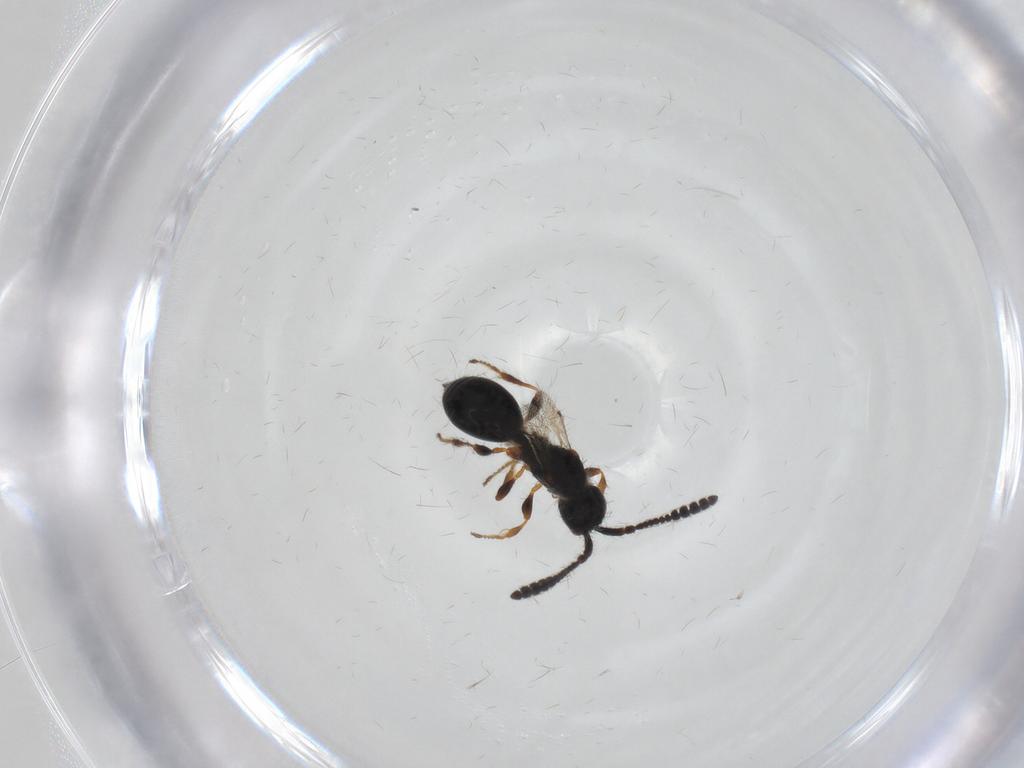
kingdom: Animalia
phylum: Arthropoda
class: Insecta
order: Hymenoptera
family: Diapriidae
